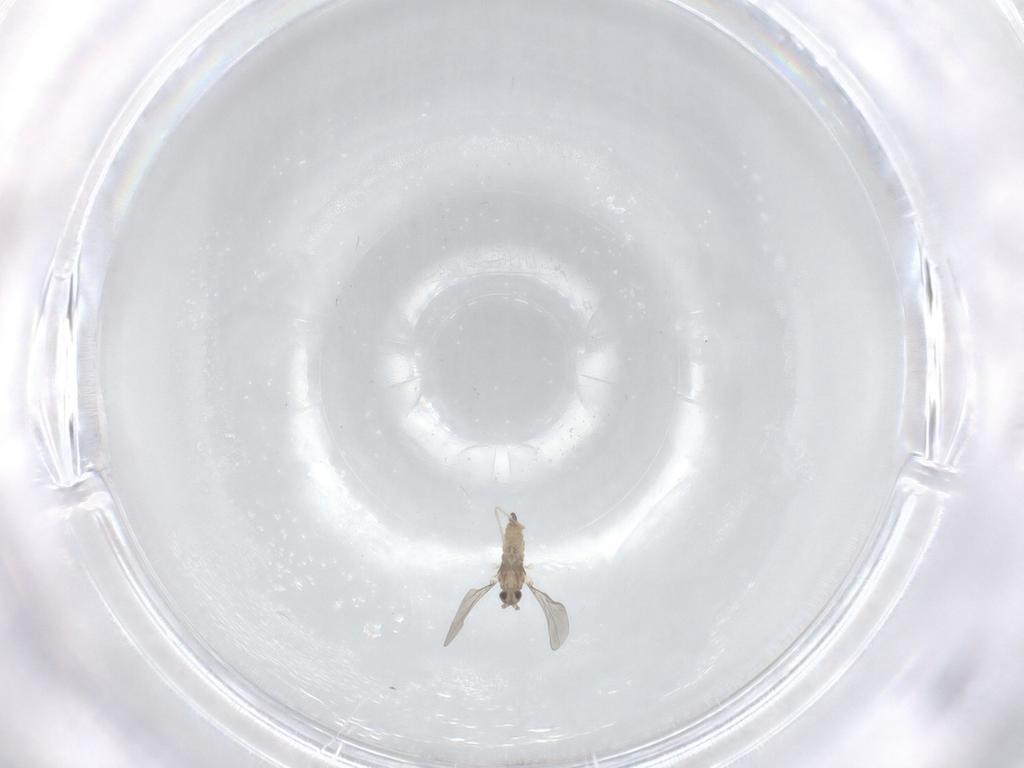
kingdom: Animalia
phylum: Arthropoda
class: Insecta
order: Diptera
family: Cecidomyiidae
